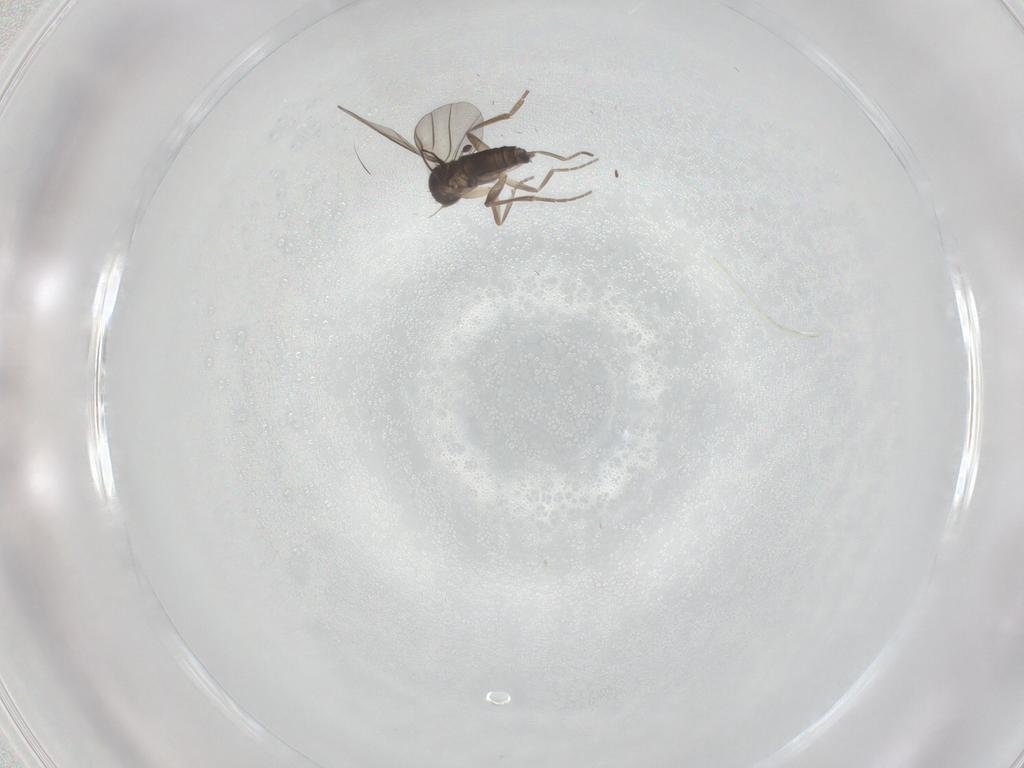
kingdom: Animalia
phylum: Arthropoda
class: Insecta
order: Diptera
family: Phoridae
